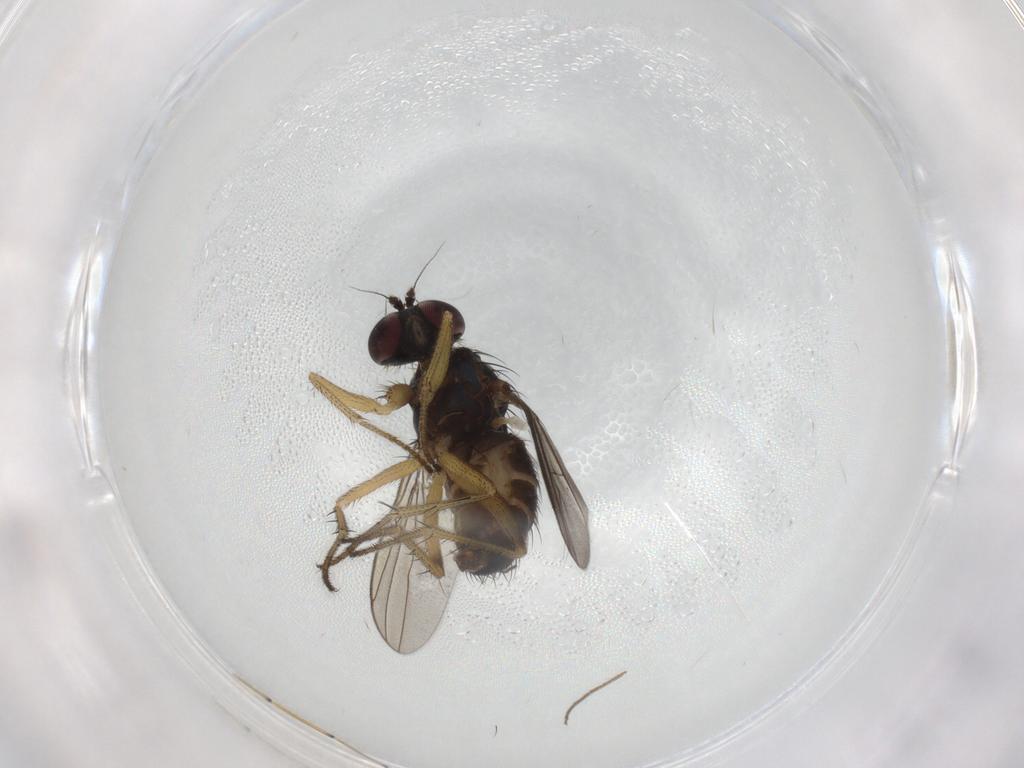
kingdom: Animalia
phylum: Arthropoda
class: Insecta
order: Diptera
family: Dolichopodidae
